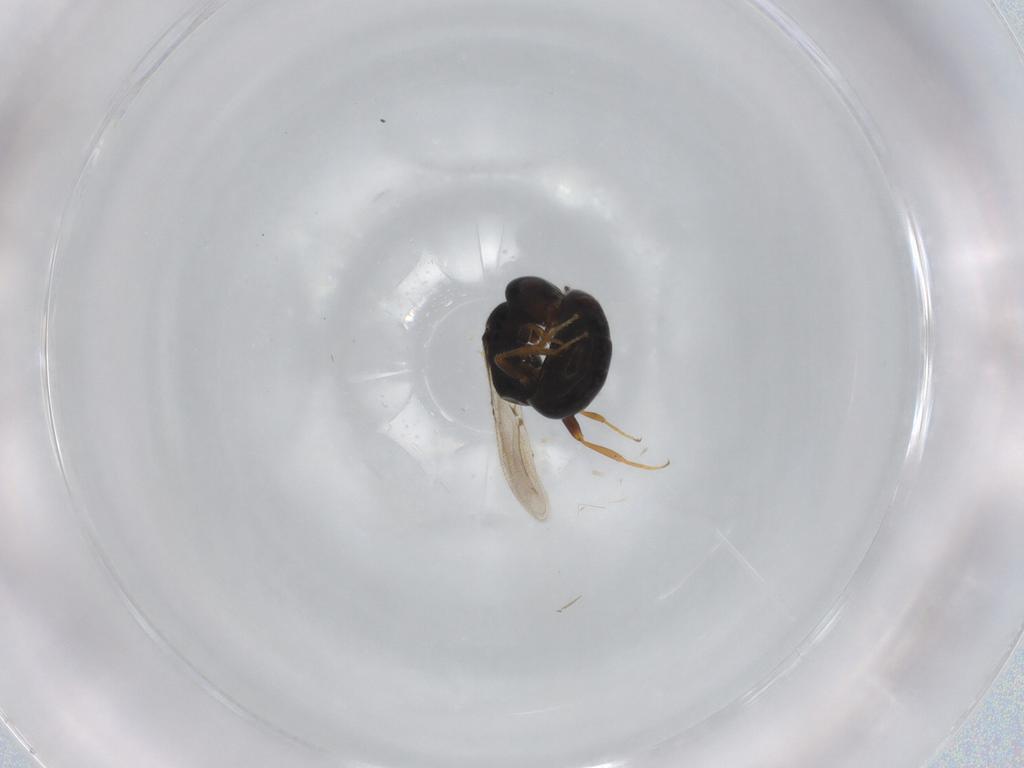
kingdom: Animalia
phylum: Arthropoda
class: Insecta
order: Hymenoptera
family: Bethylidae
